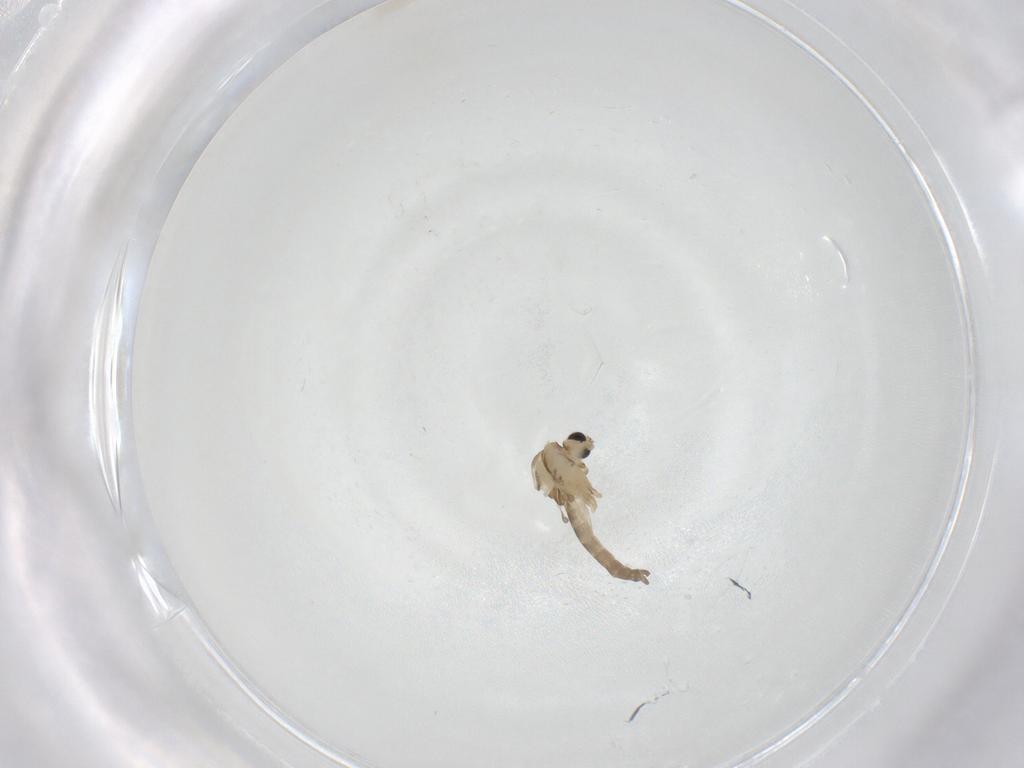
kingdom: Animalia
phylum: Arthropoda
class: Insecta
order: Diptera
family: Chironomidae
